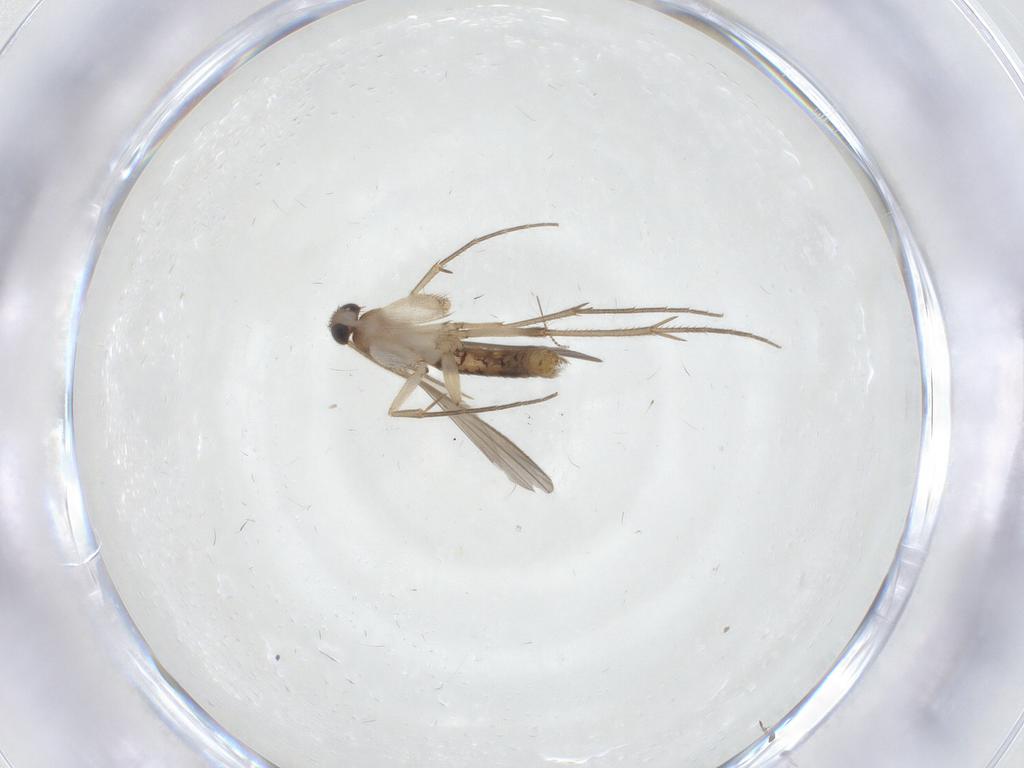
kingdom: Animalia
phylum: Arthropoda
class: Insecta
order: Diptera
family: Mycetophilidae
